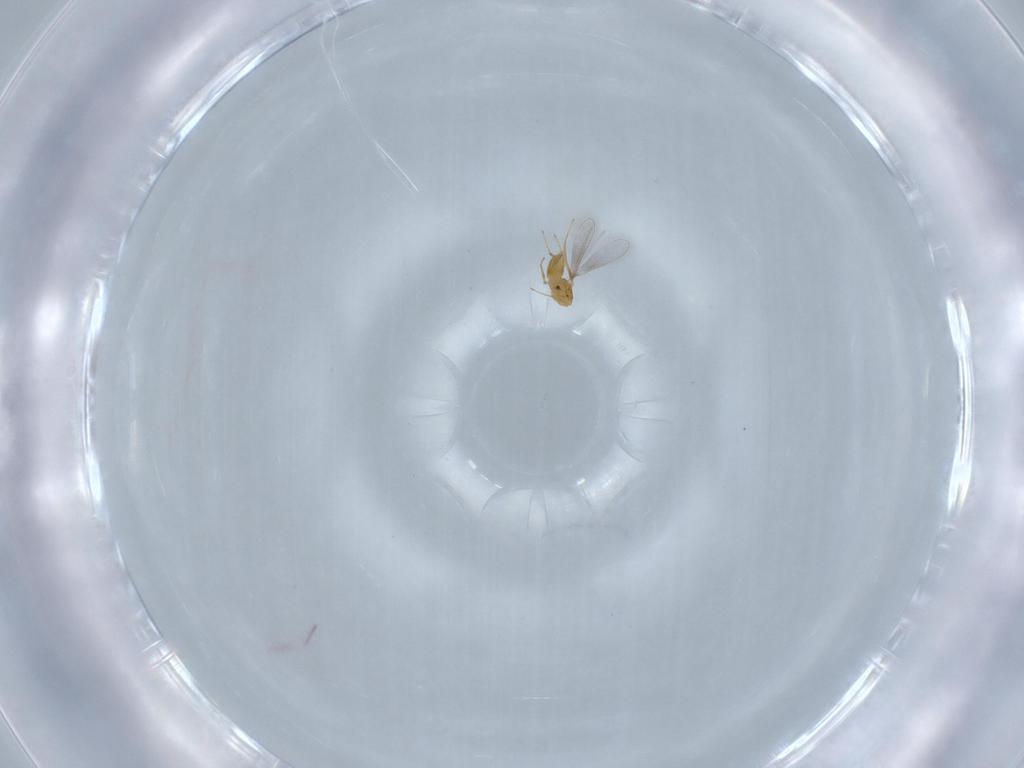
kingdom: Animalia
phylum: Arthropoda
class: Insecta
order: Hymenoptera
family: Mymaridae
